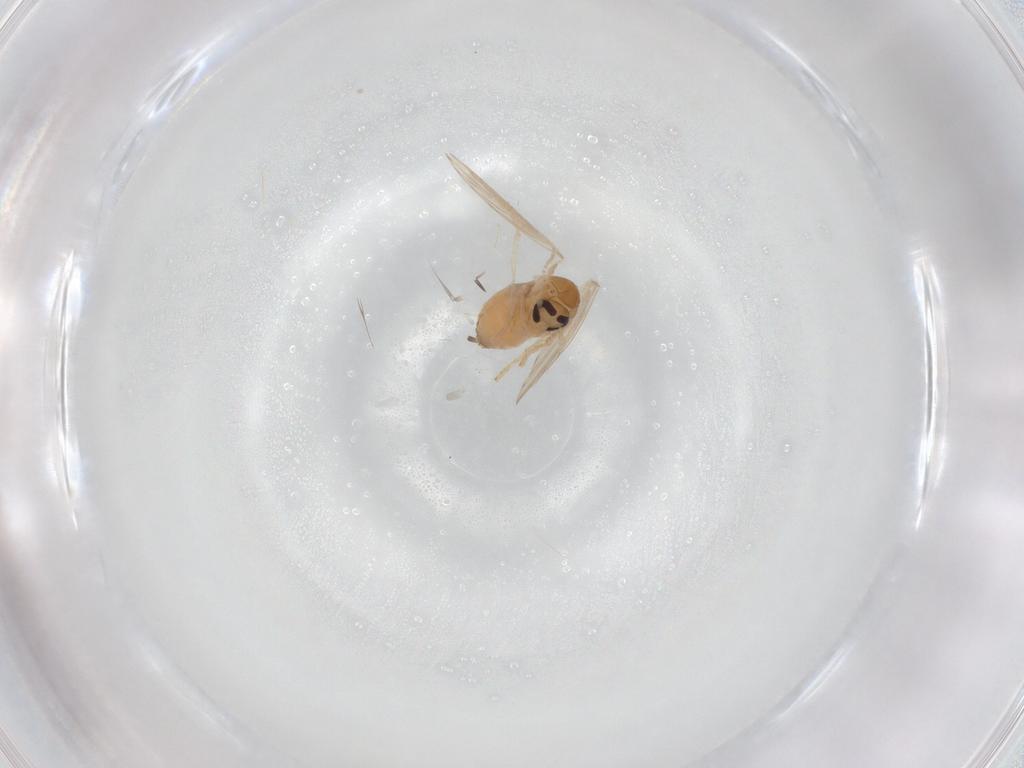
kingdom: Animalia
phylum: Arthropoda
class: Insecta
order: Diptera
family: Psychodidae
